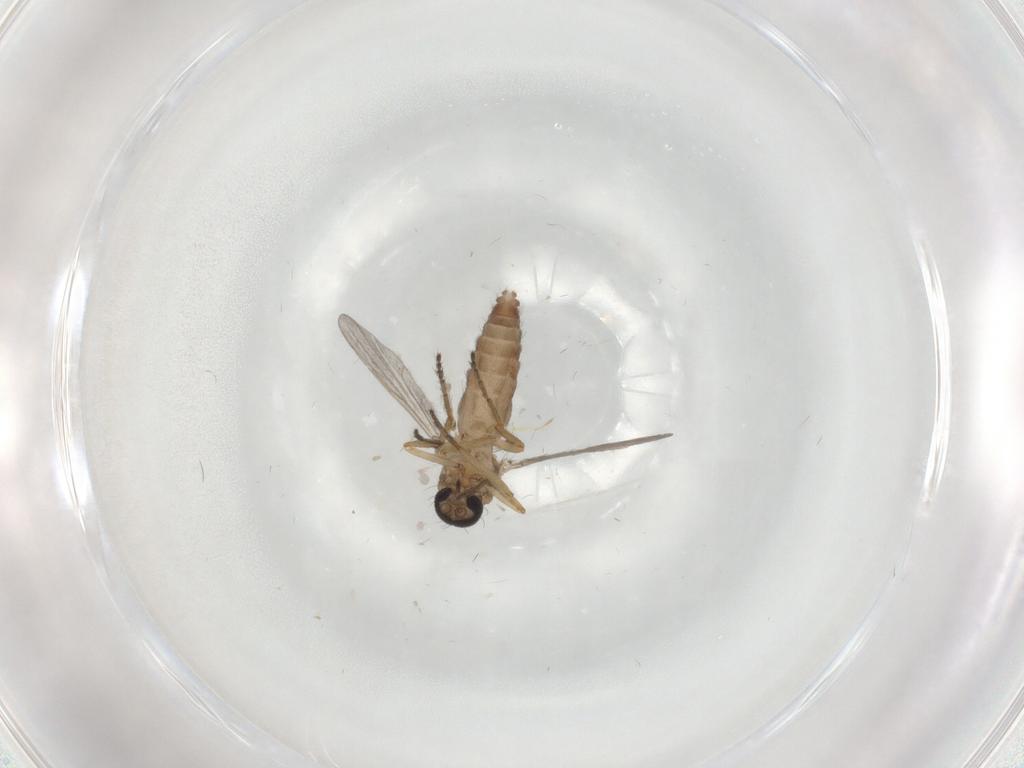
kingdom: Animalia
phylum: Arthropoda
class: Insecta
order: Diptera
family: Ceratopogonidae
